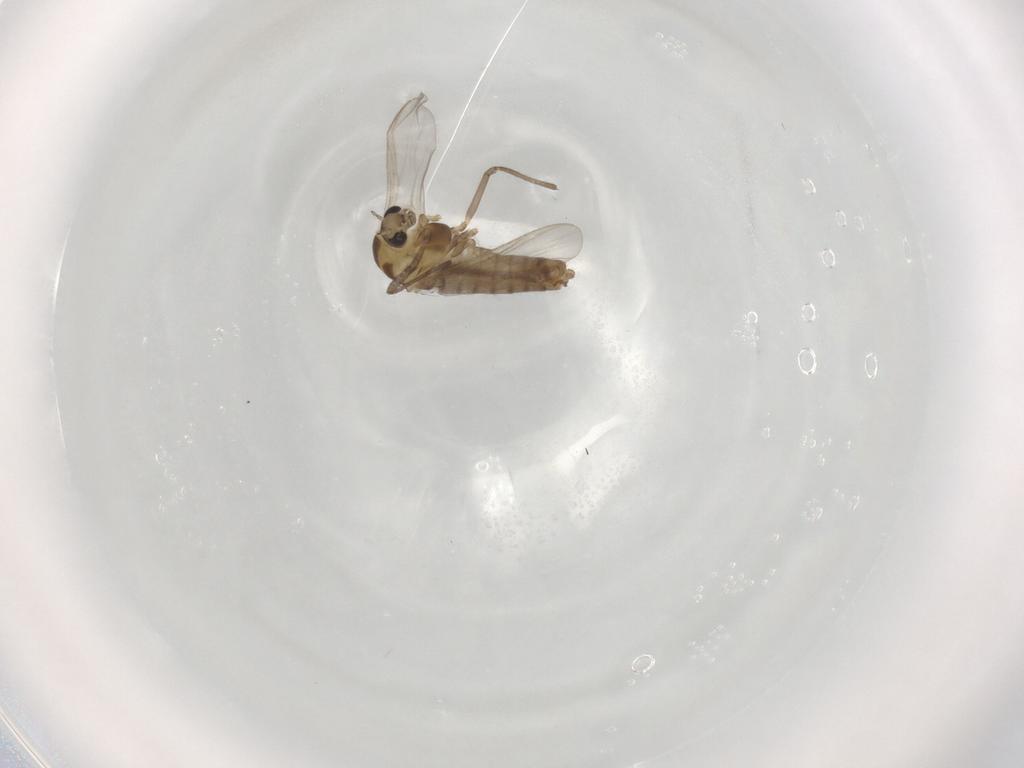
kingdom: Animalia
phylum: Arthropoda
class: Insecta
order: Diptera
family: Chironomidae
